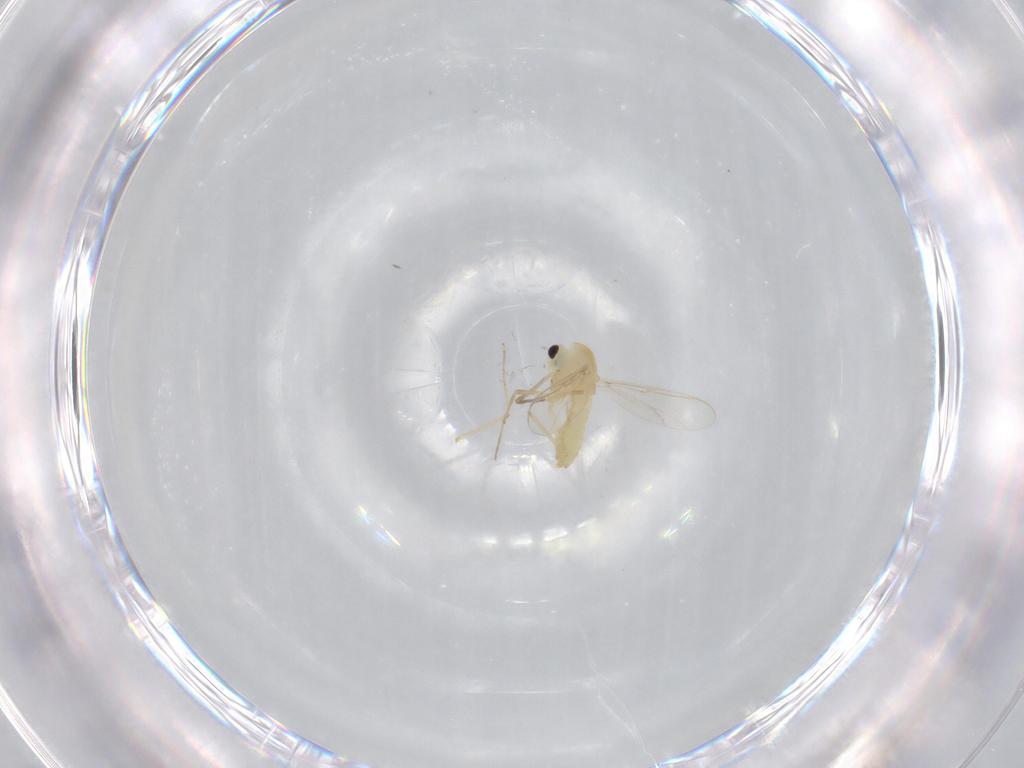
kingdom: Animalia
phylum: Arthropoda
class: Insecta
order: Diptera
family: Chironomidae
